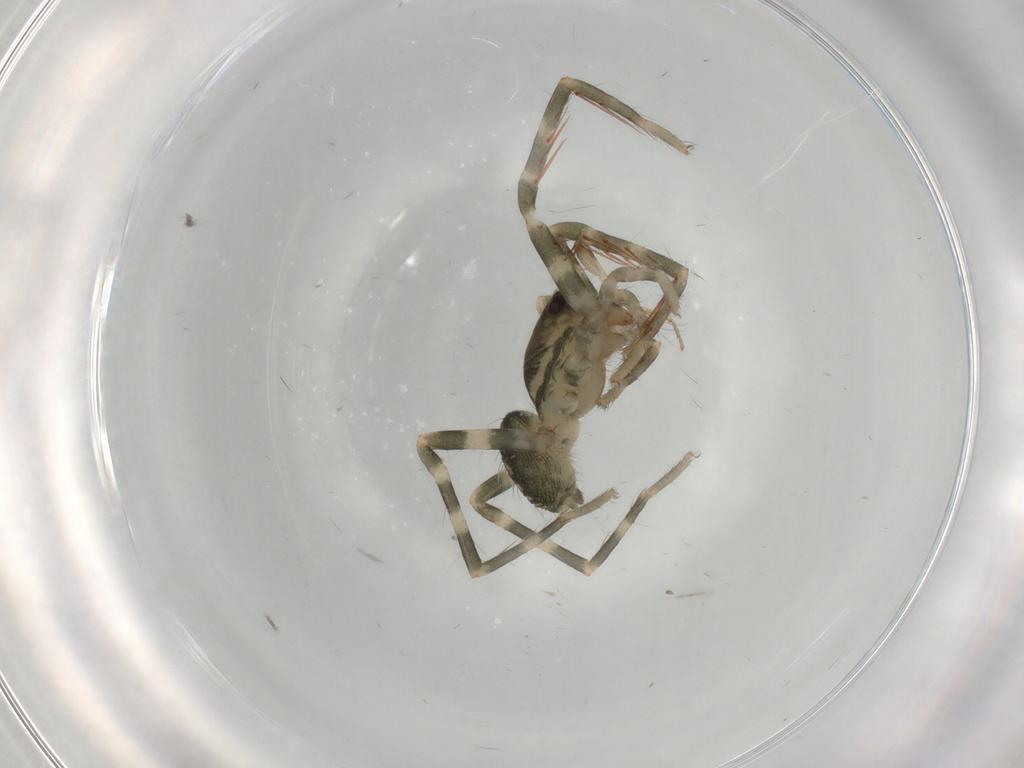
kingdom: Animalia
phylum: Arthropoda
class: Arachnida
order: Araneae
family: Ctenidae
